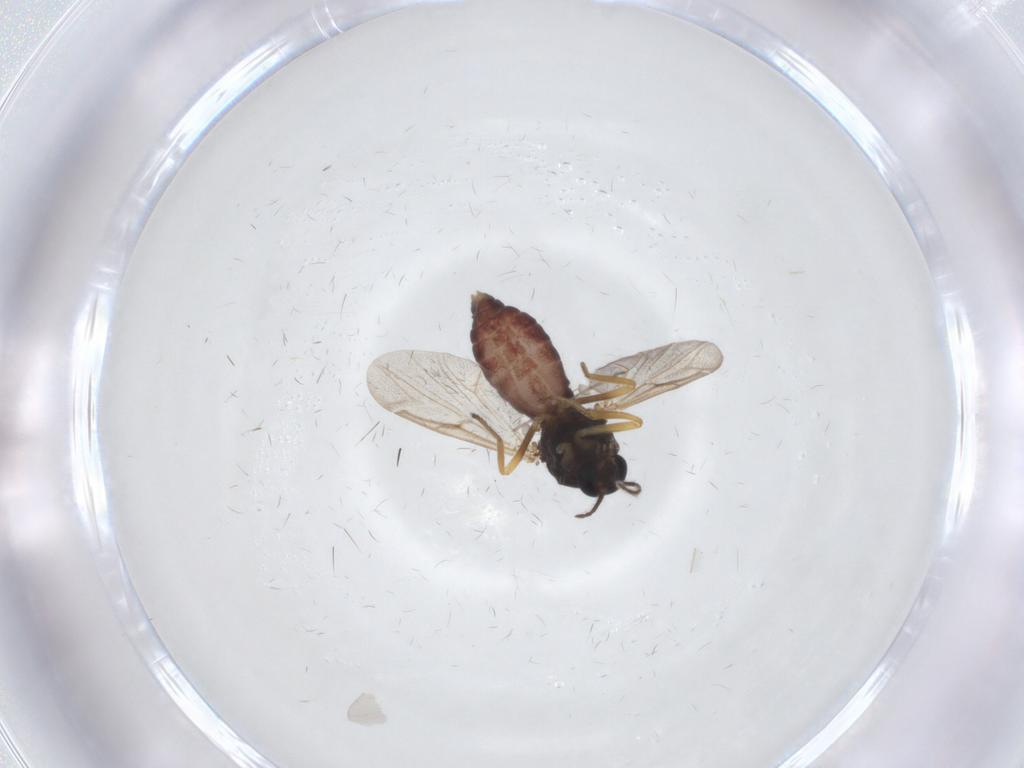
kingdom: Animalia
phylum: Arthropoda
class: Insecta
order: Diptera
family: Ceratopogonidae
